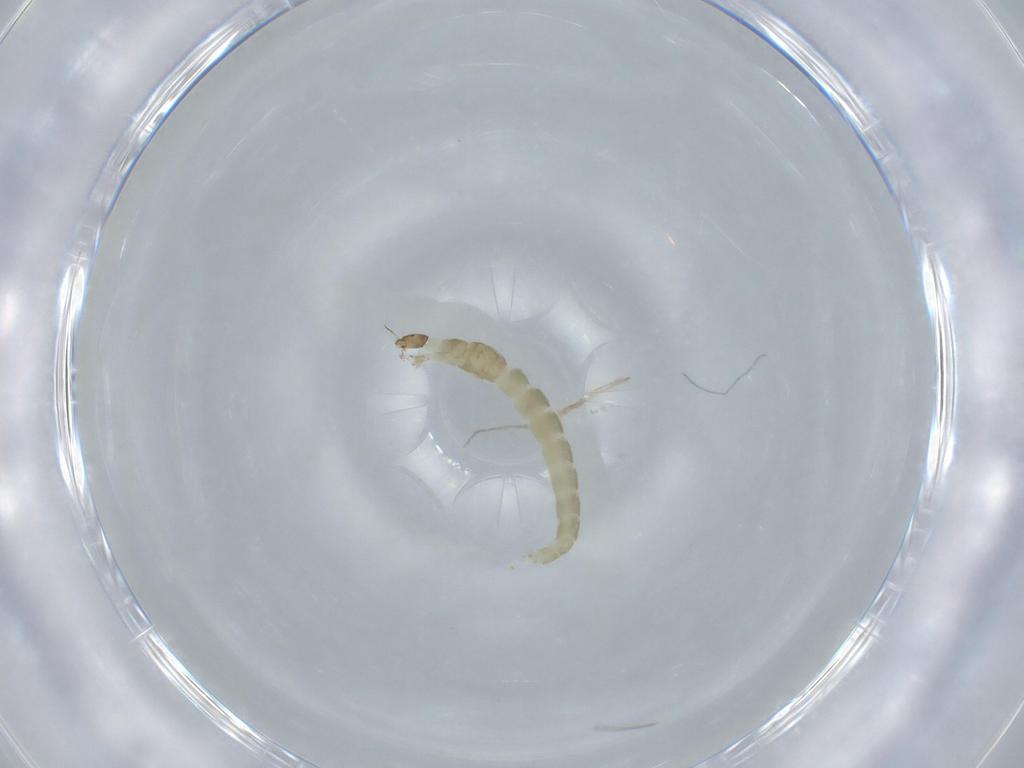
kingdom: Animalia
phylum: Arthropoda
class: Insecta
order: Diptera
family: Chironomidae
